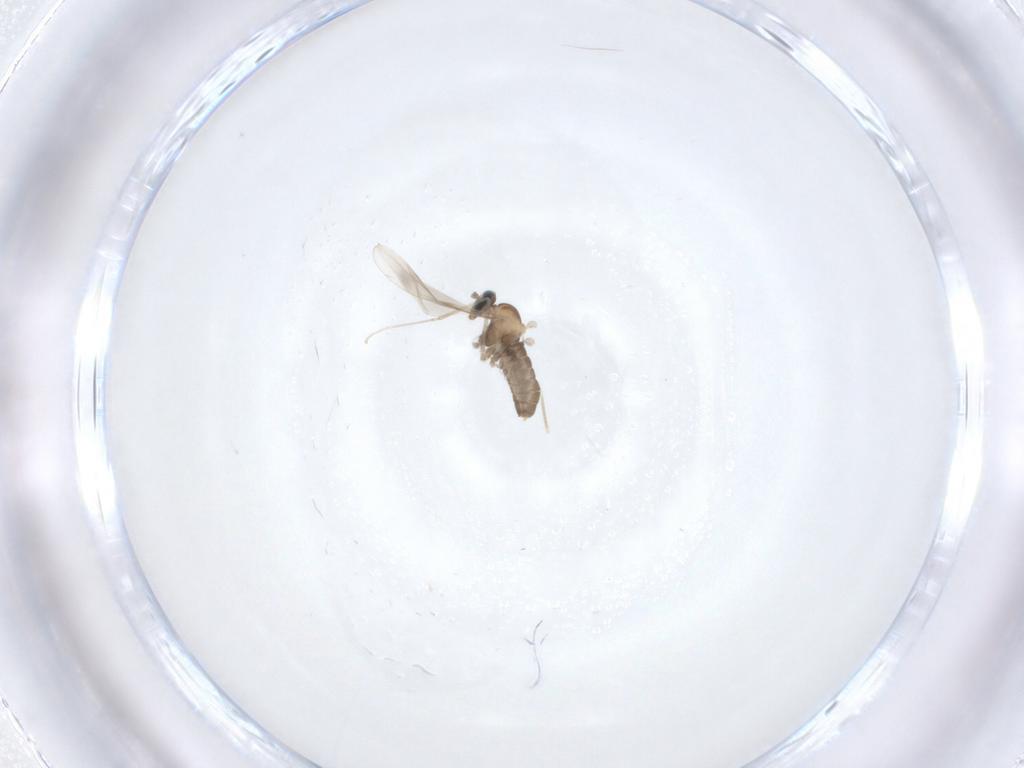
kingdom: Animalia
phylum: Arthropoda
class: Insecta
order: Diptera
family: Cecidomyiidae
